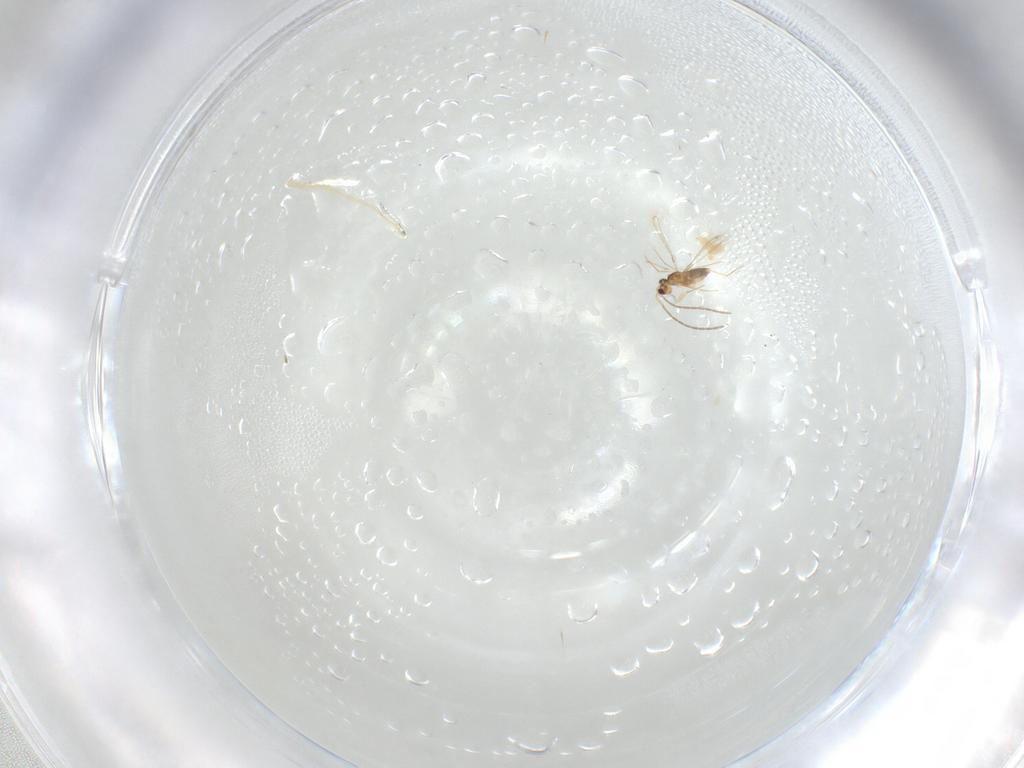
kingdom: Animalia
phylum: Arthropoda
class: Insecta
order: Hymenoptera
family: Mymaridae
